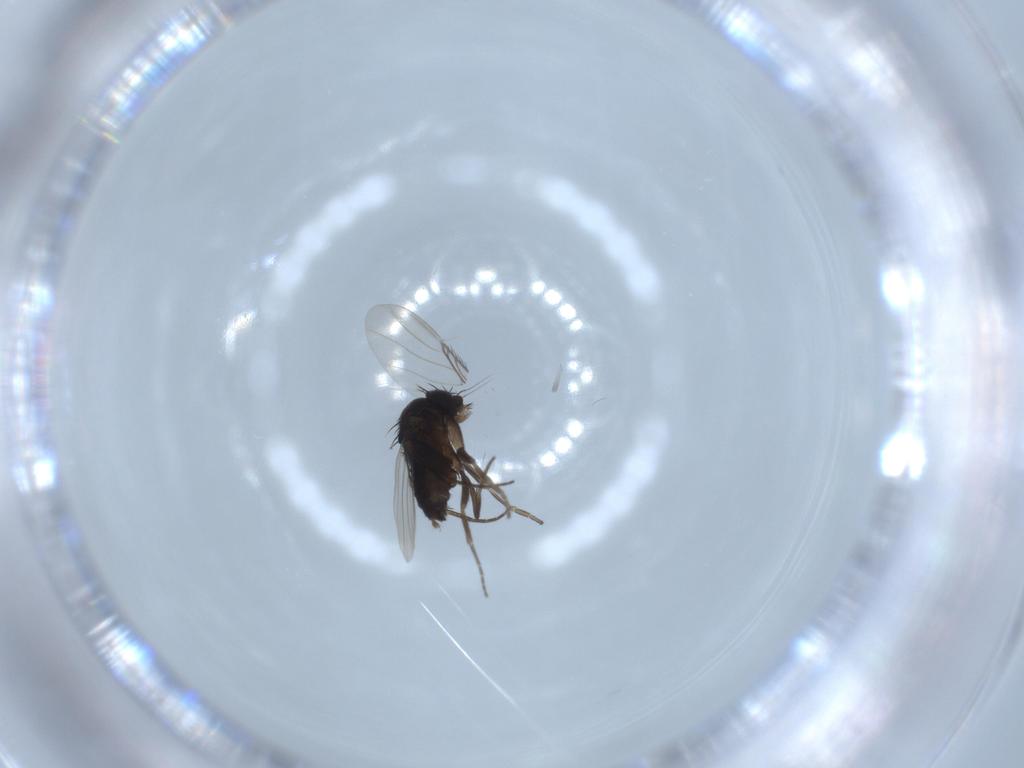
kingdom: Animalia
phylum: Arthropoda
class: Insecta
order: Diptera
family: Phoridae
